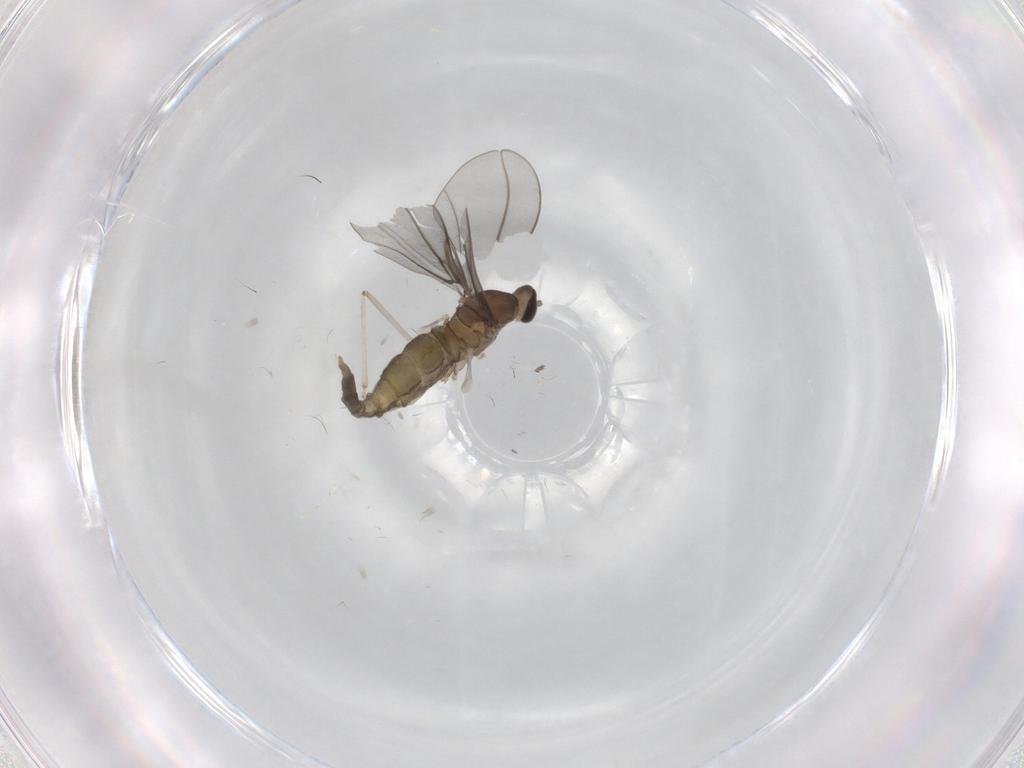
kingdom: Animalia
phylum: Arthropoda
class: Insecta
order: Diptera
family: Cecidomyiidae
